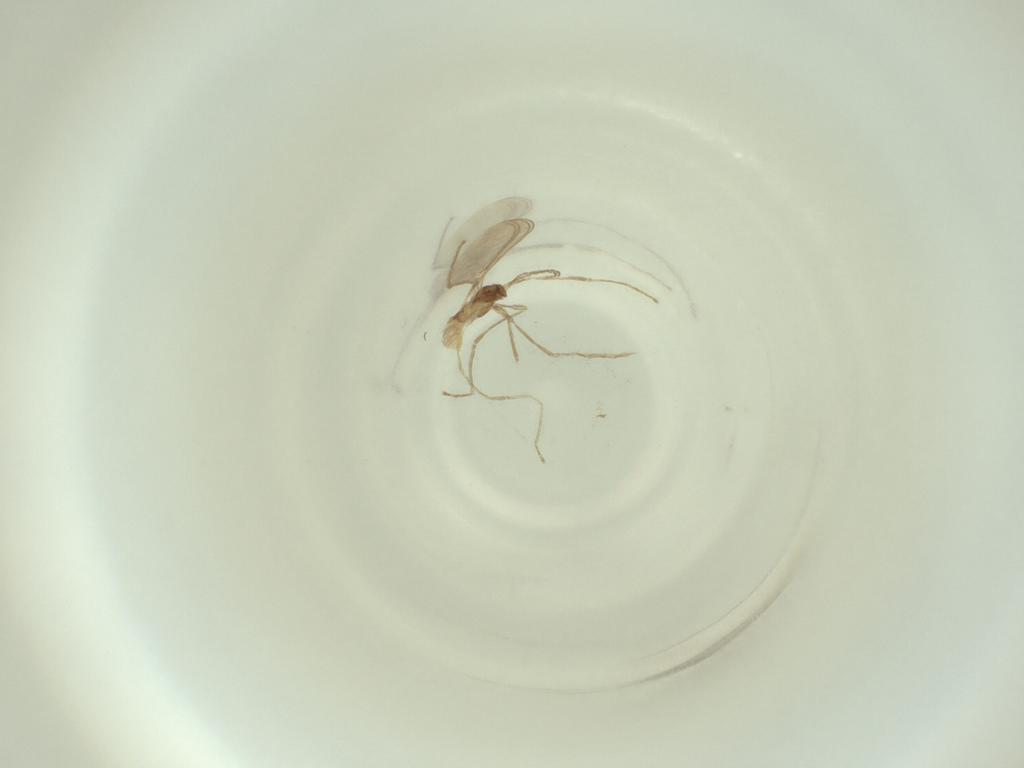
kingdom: Animalia
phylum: Arthropoda
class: Insecta
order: Diptera
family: Cecidomyiidae
